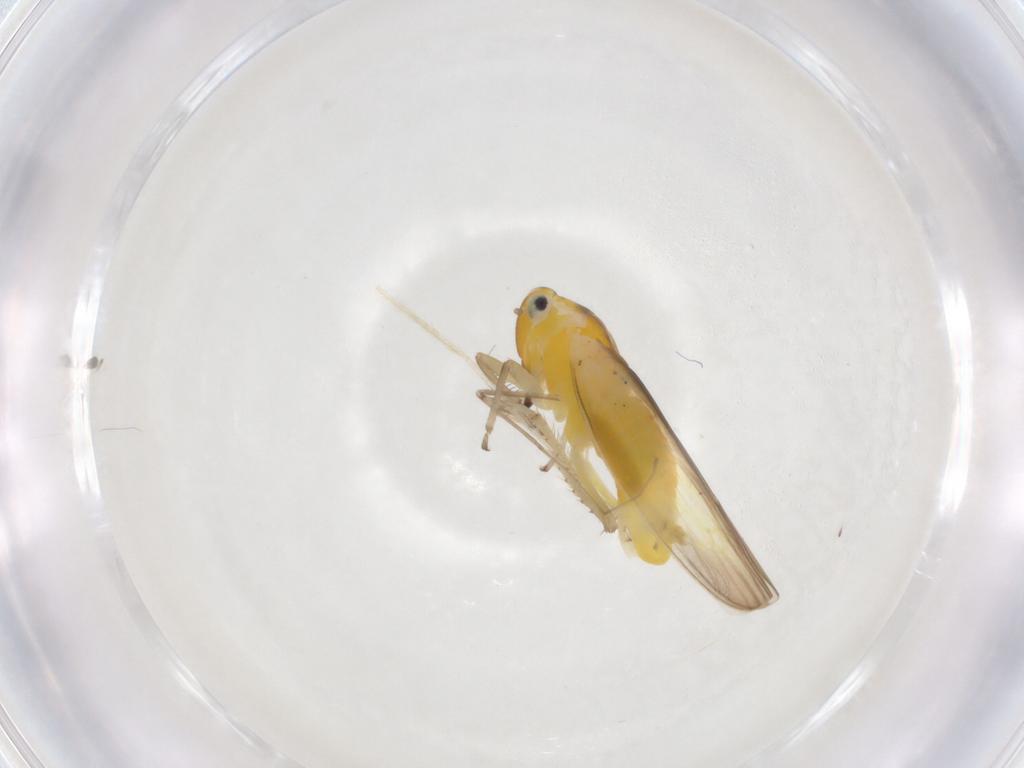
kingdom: Animalia
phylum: Arthropoda
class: Insecta
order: Hemiptera
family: Cicadellidae
